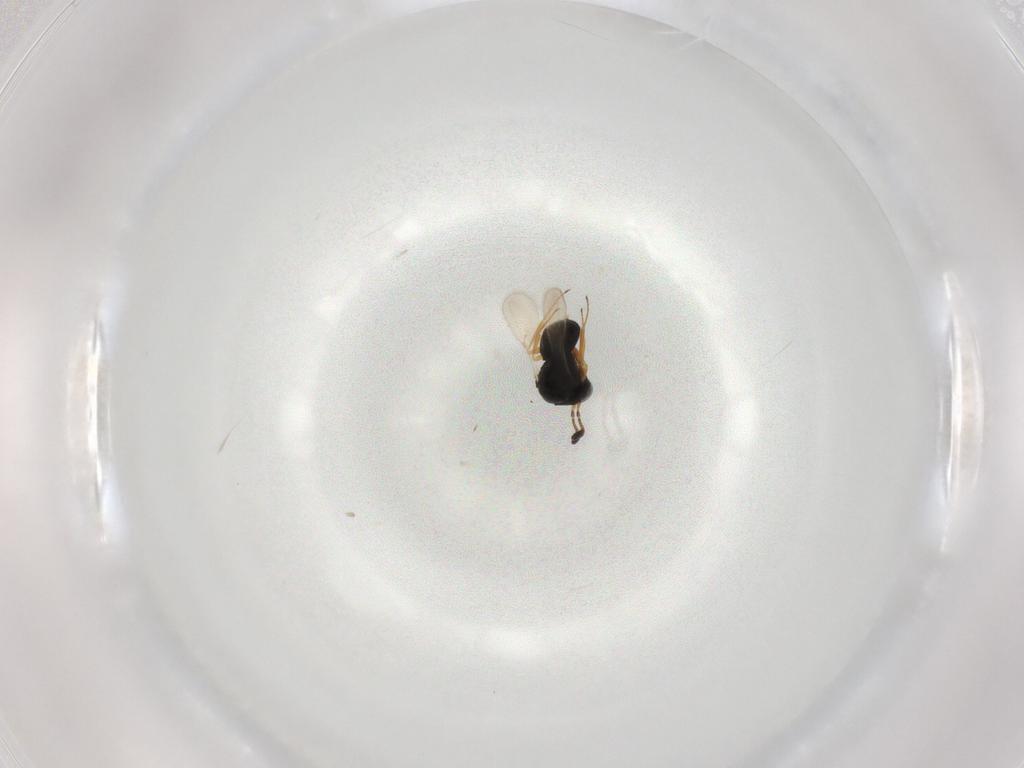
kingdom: Animalia
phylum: Arthropoda
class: Insecta
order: Hymenoptera
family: Scelionidae
